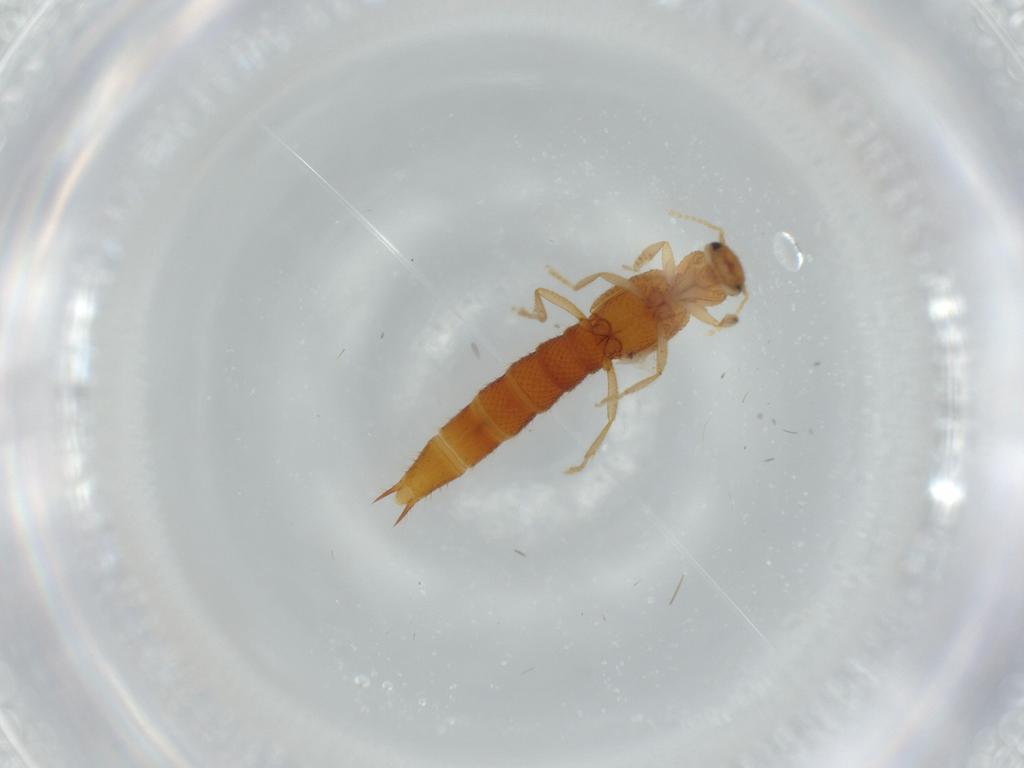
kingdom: Animalia
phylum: Arthropoda
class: Insecta
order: Coleoptera
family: Staphylinidae
